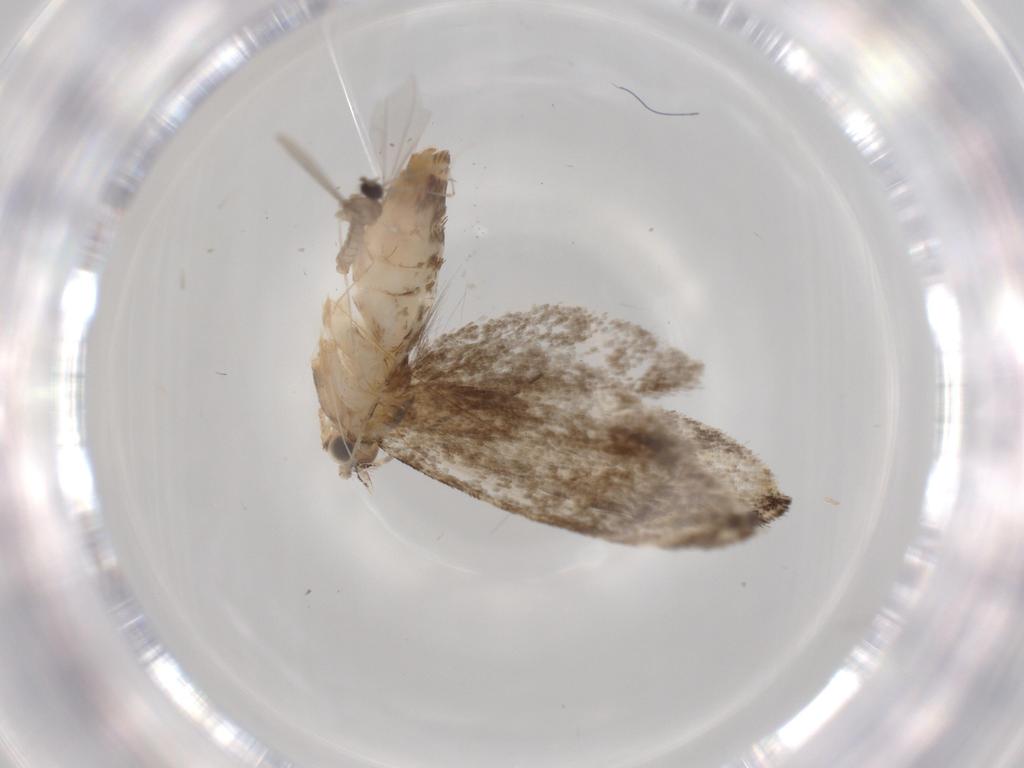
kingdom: Animalia
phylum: Arthropoda
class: Insecta
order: Lepidoptera
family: Tineidae
